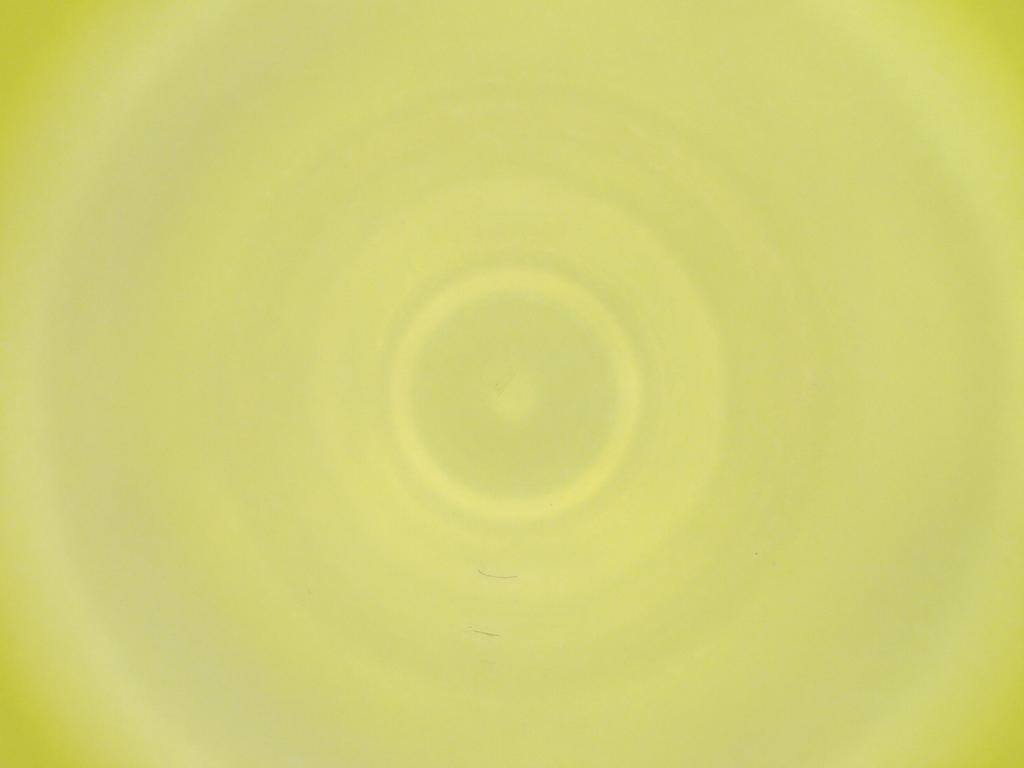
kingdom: Animalia
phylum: Arthropoda
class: Insecta
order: Diptera
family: Cecidomyiidae
